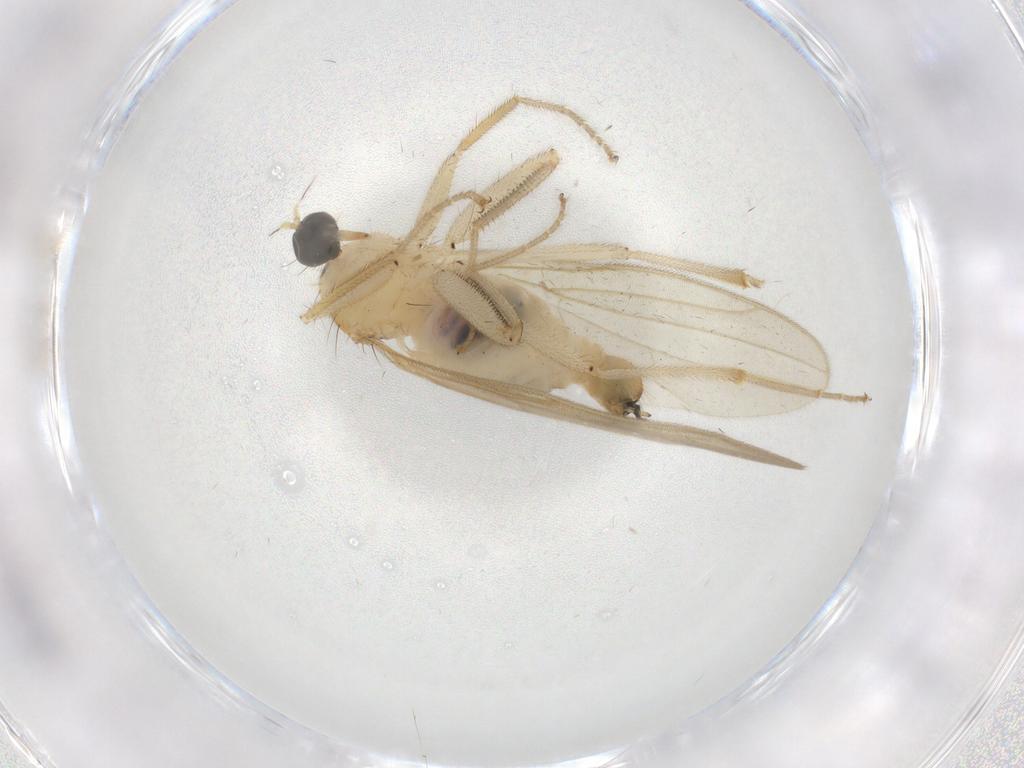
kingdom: Animalia
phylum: Arthropoda
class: Insecta
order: Diptera
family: Hybotidae
